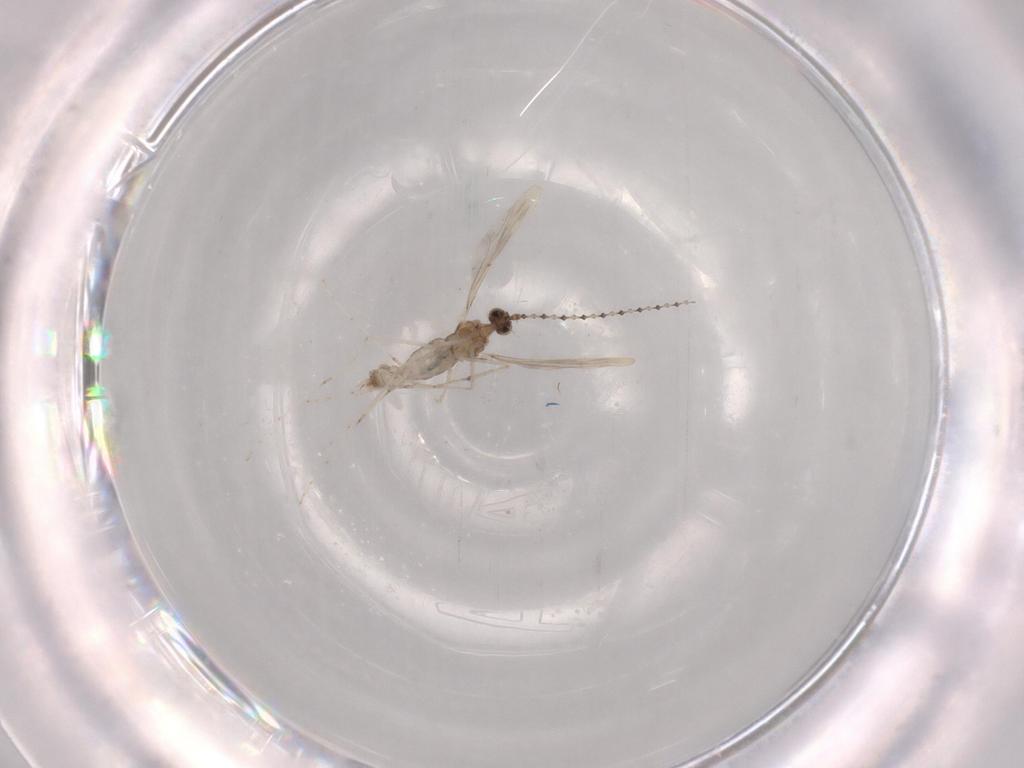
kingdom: Animalia
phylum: Arthropoda
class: Insecta
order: Diptera
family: Cecidomyiidae
